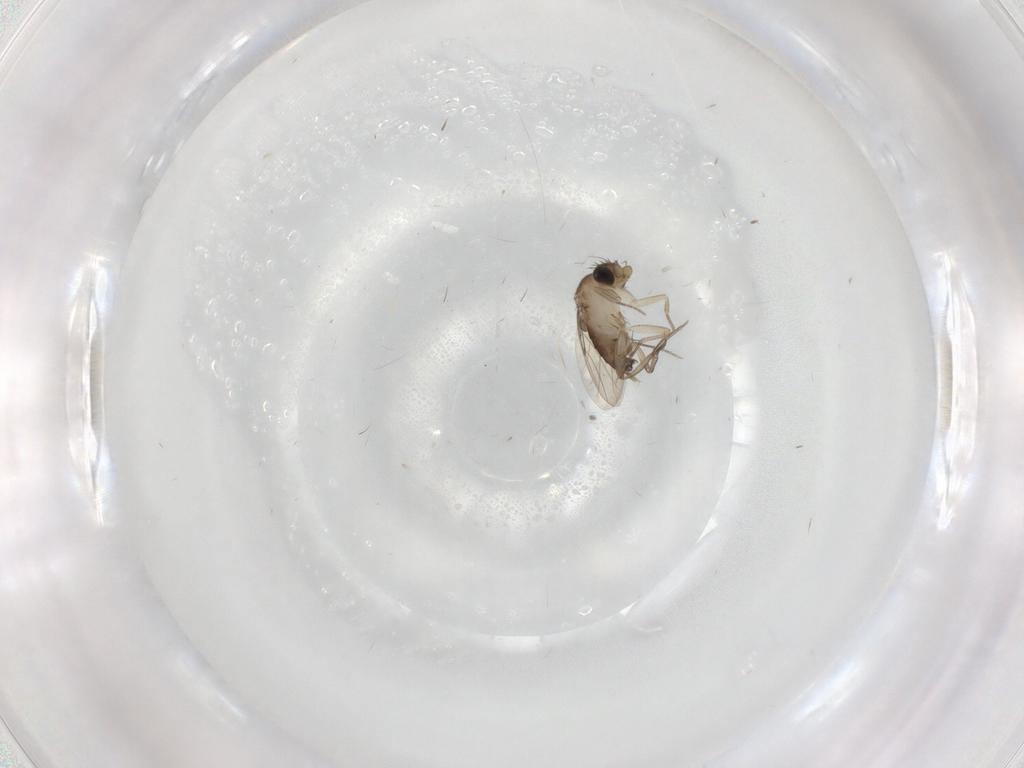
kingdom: Animalia
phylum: Arthropoda
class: Insecta
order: Diptera
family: Phoridae
